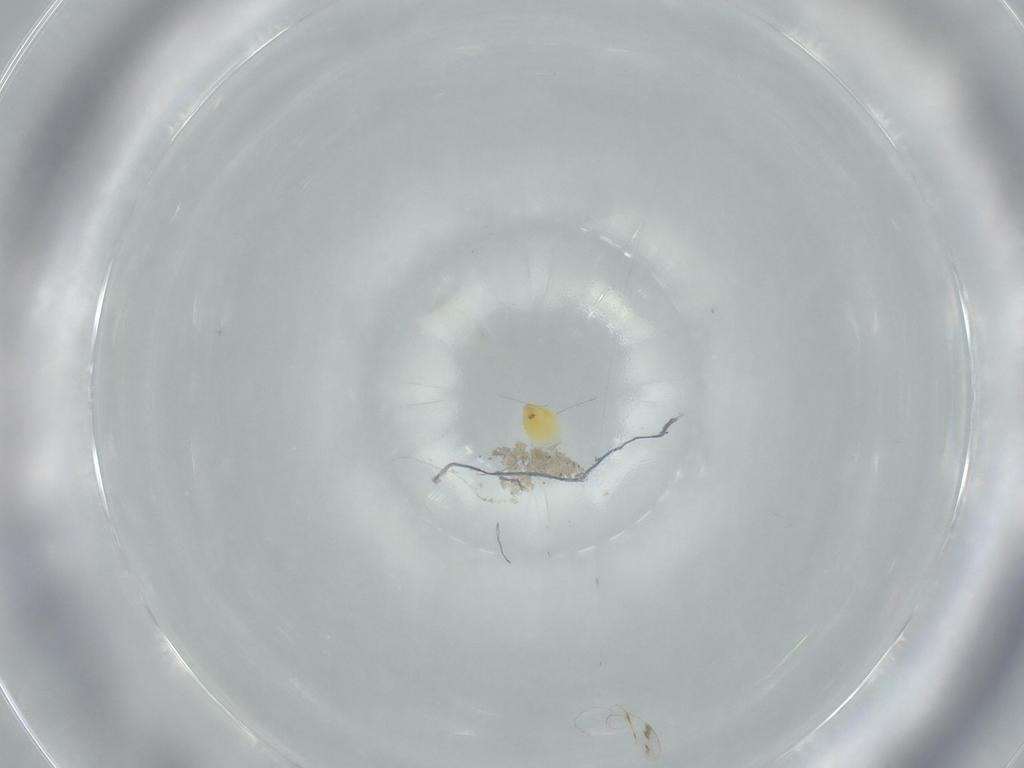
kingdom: Animalia
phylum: Arthropoda
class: Insecta
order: Hemiptera
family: Aleyrodidae
